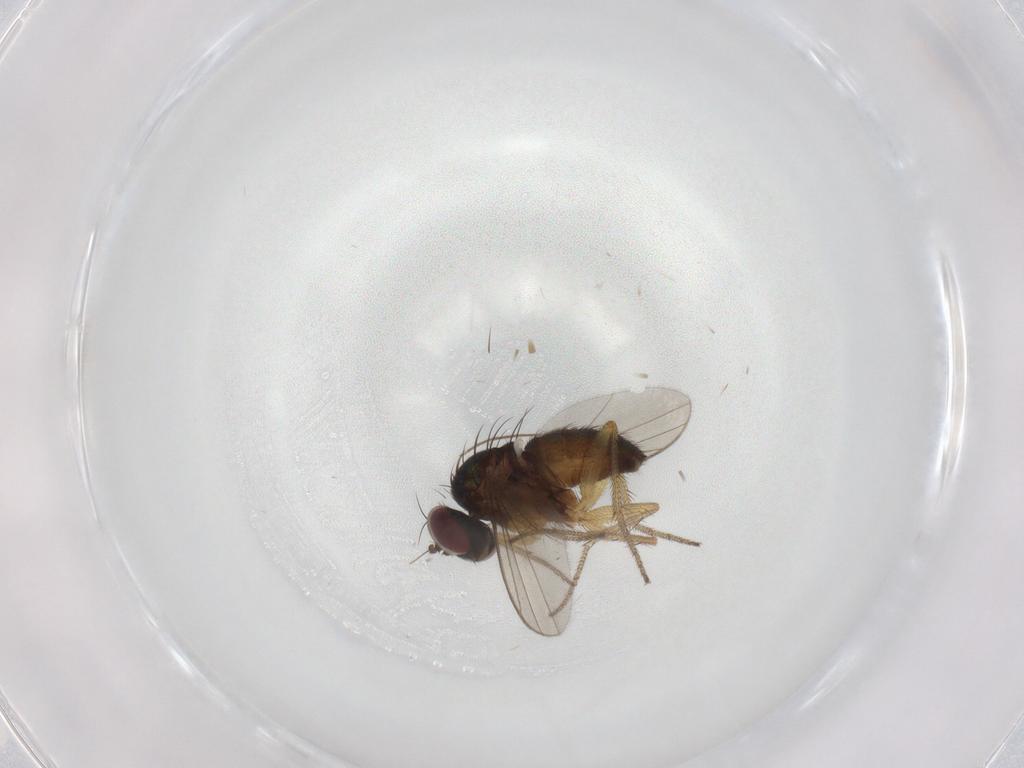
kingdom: Animalia
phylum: Arthropoda
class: Insecta
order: Diptera
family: Dolichopodidae
